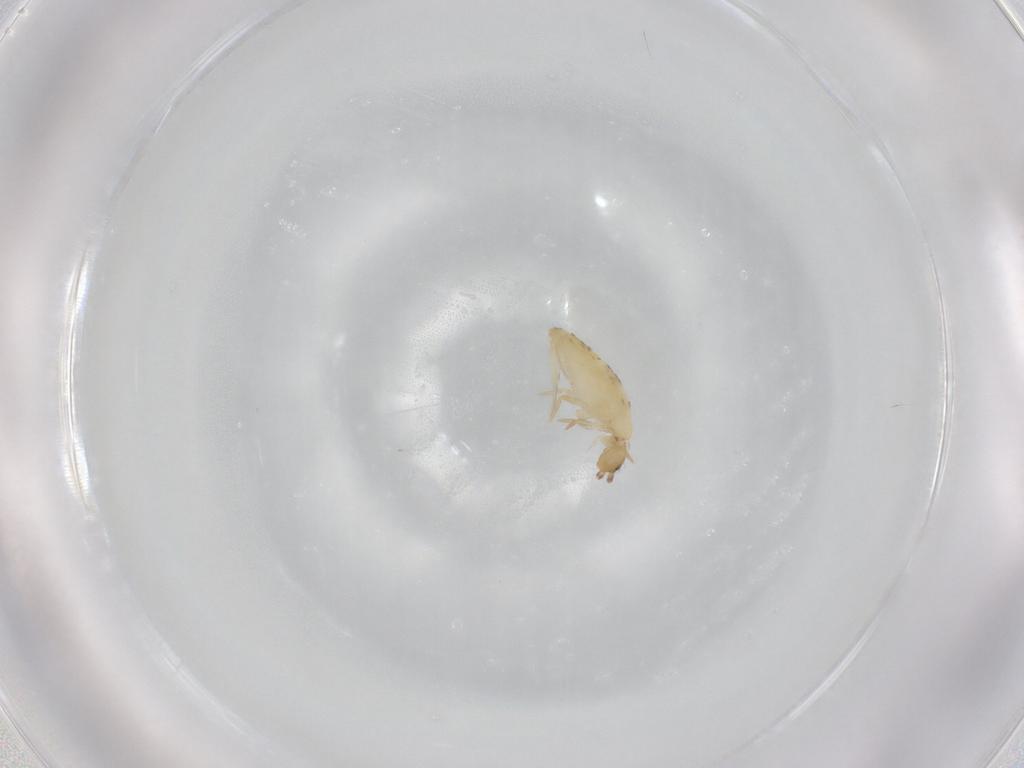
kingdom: Animalia
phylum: Arthropoda
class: Collembola
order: Entomobryomorpha
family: Entomobryidae
